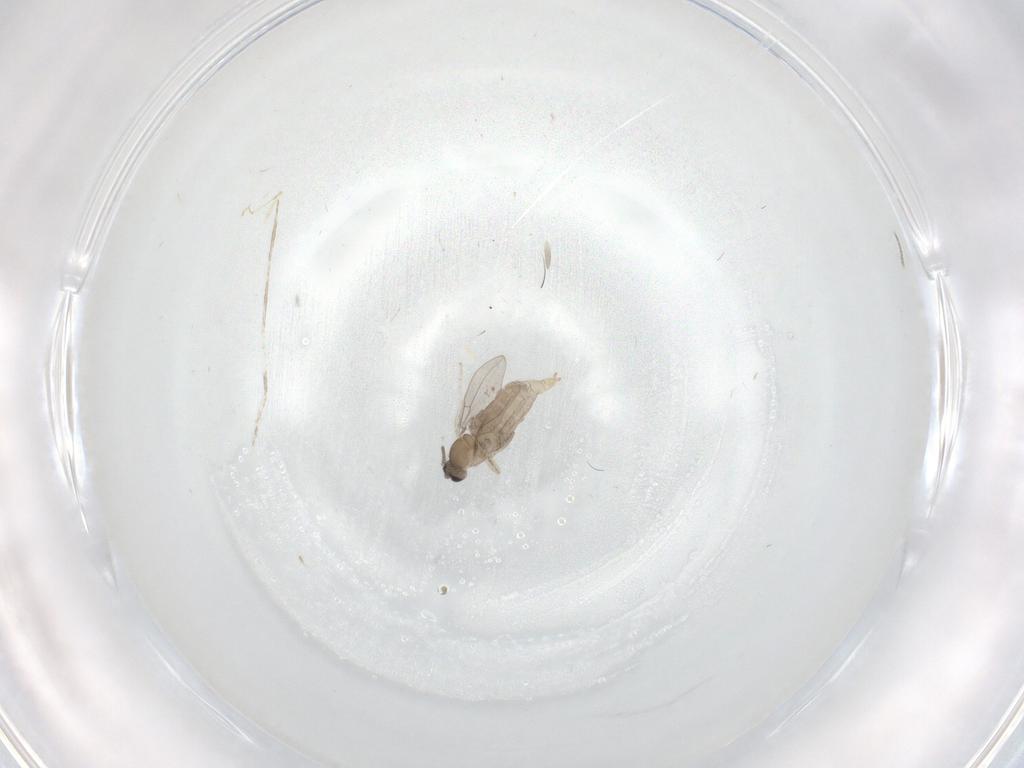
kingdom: Animalia
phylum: Arthropoda
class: Insecta
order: Diptera
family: Cecidomyiidae
